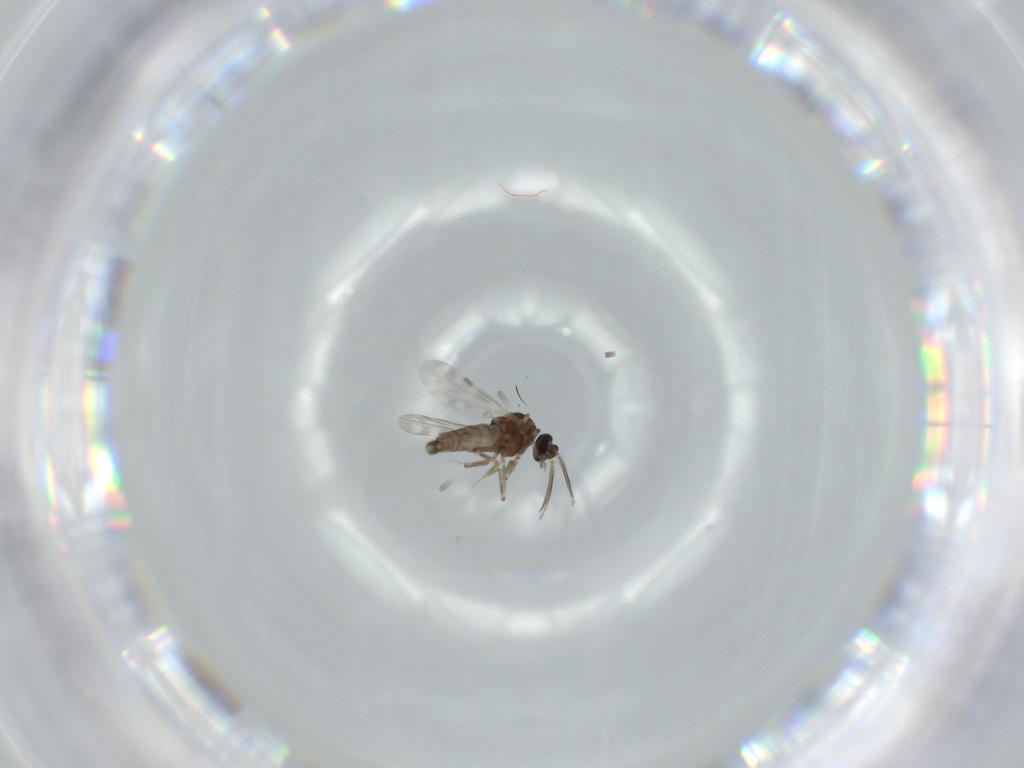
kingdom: Animalia
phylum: Arthropoda
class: Insecta
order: Diptera
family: Ceratopogonidae
